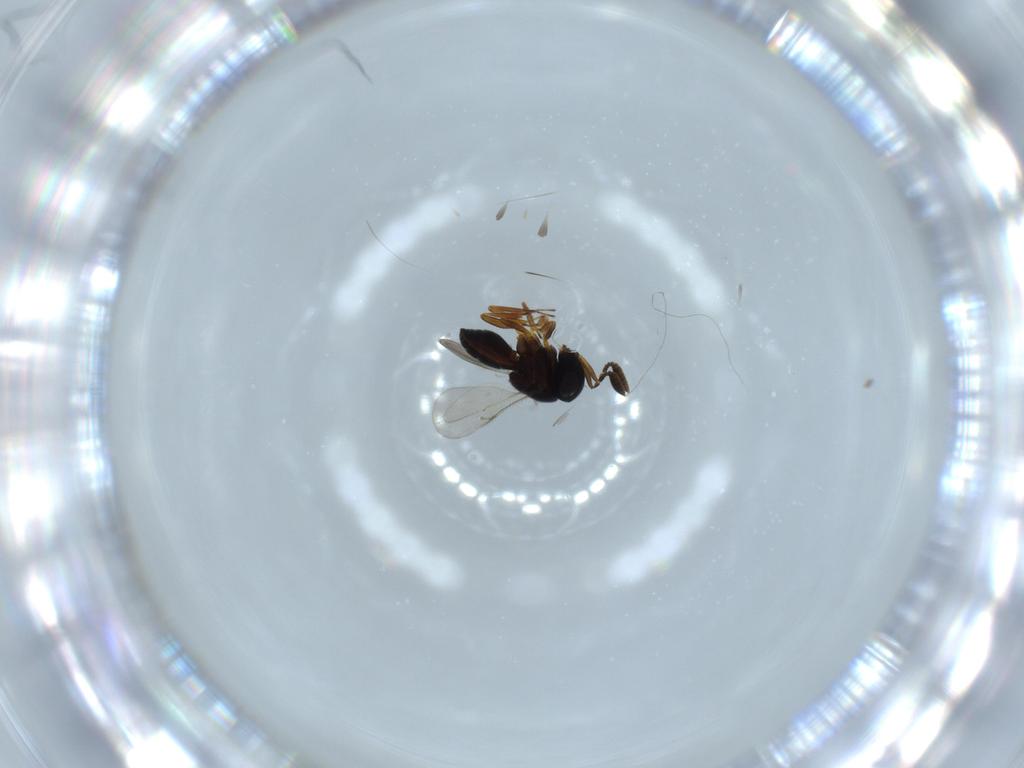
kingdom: Animalia
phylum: Arthropoda
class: Insecta
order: Coleoptera
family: Curculionidae
